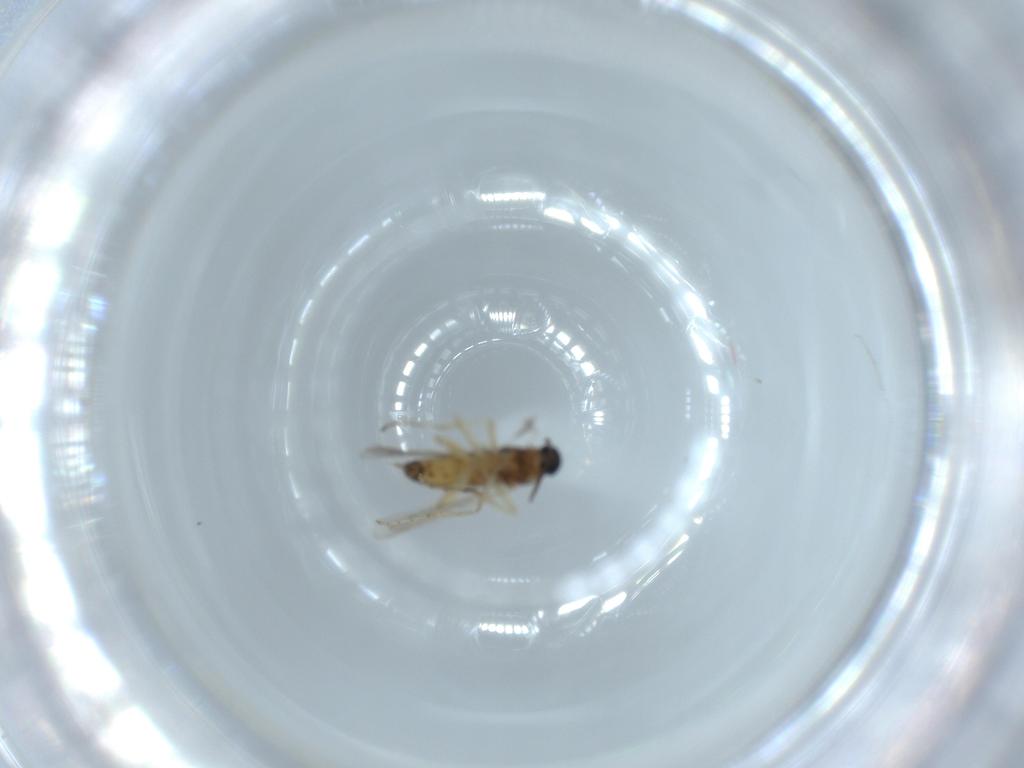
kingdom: Animalia
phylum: Arthropoda
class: Insecta
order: Diptera
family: Cecidomyiidae
